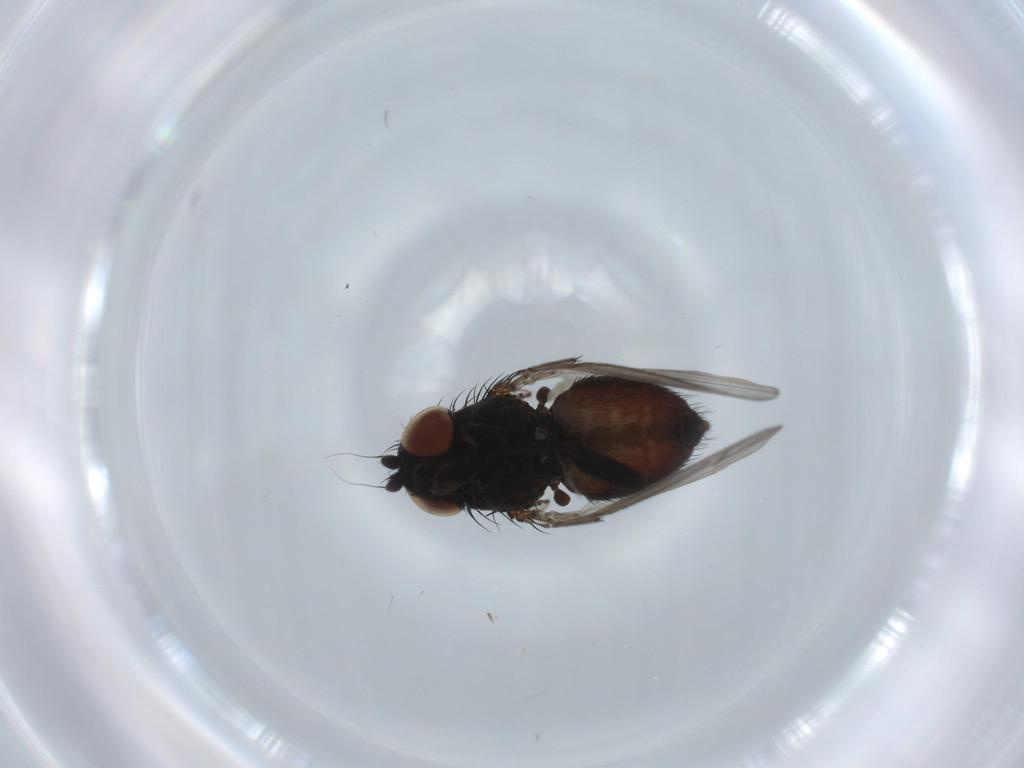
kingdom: Animalia
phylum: Arthropoda
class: Insecta
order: Diptera
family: Milichiidae
